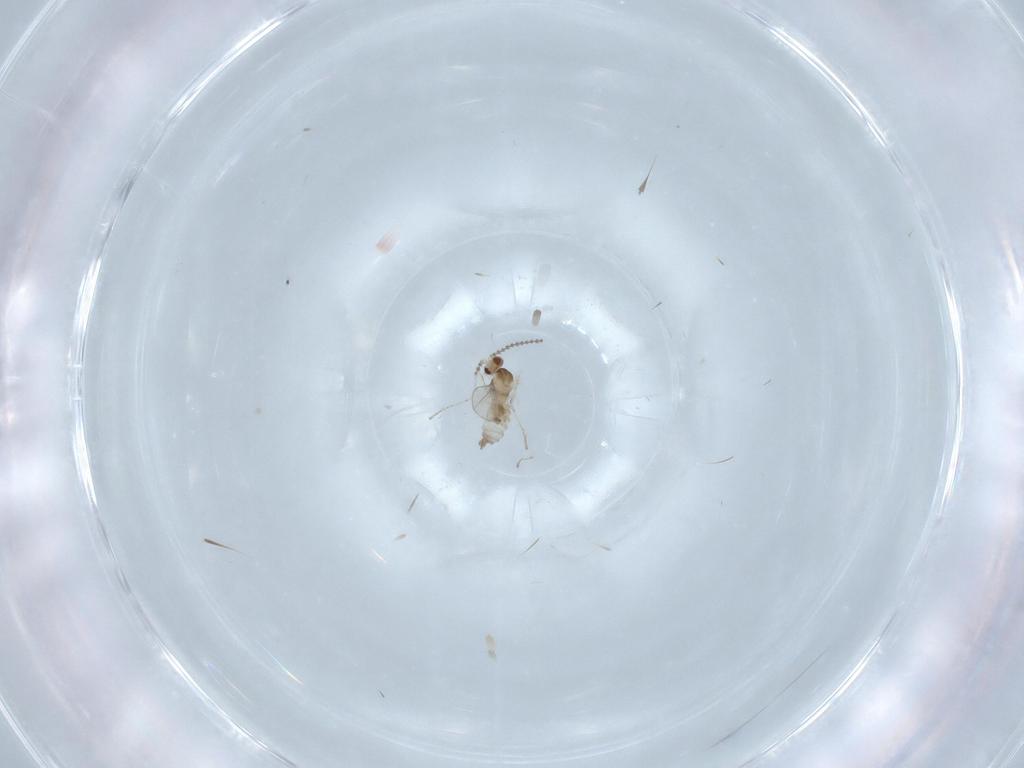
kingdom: Animalia
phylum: Arthropoda
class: Insecta
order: Diptera
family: Cecidomyiidae
